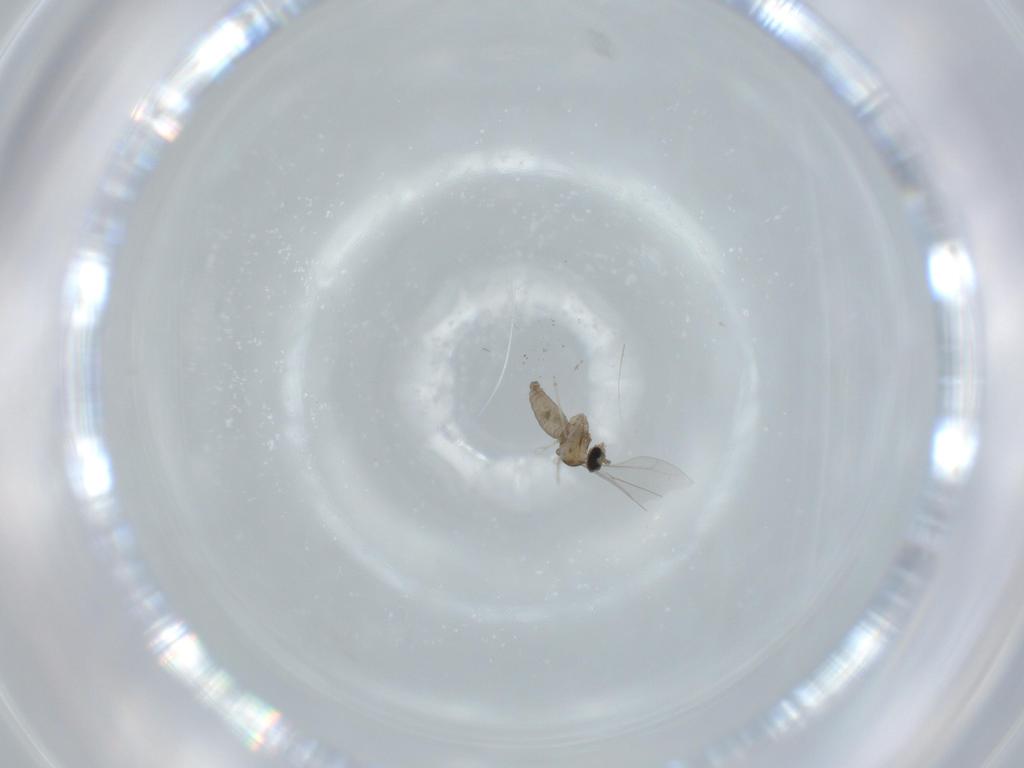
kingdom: Animalia
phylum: Arthropoda
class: Insecta
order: Diptera
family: Cecidomyiidae
